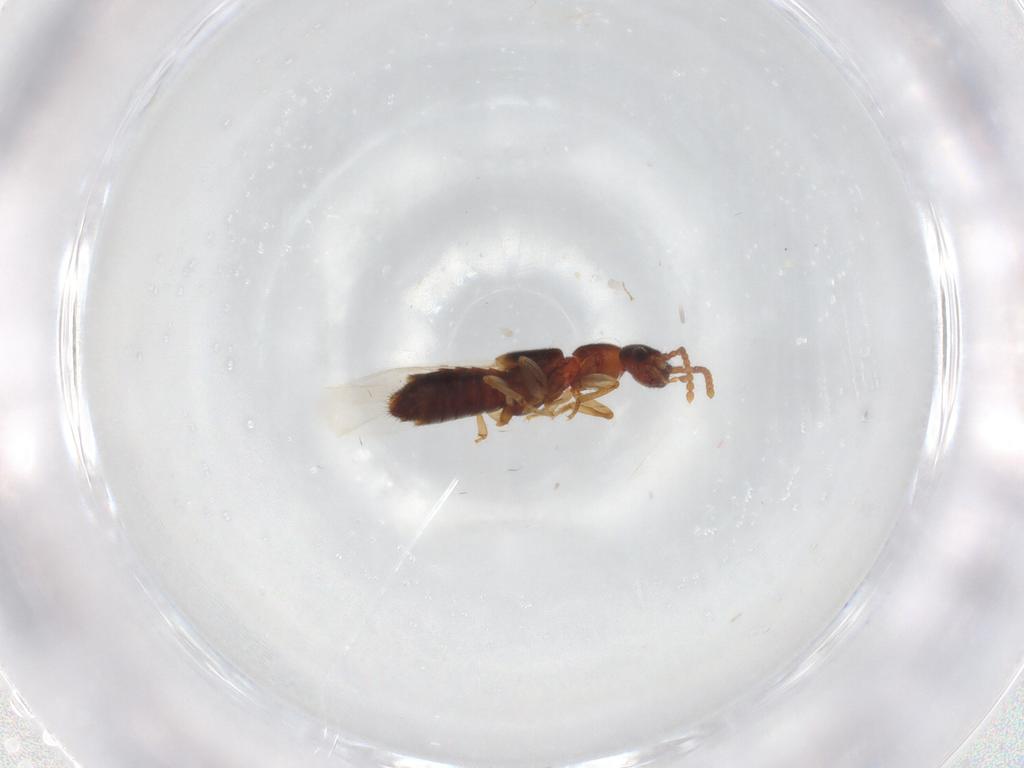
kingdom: Animalia
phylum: Arthropoda
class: Insecta
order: Coleoptera
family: Staphylinidae
